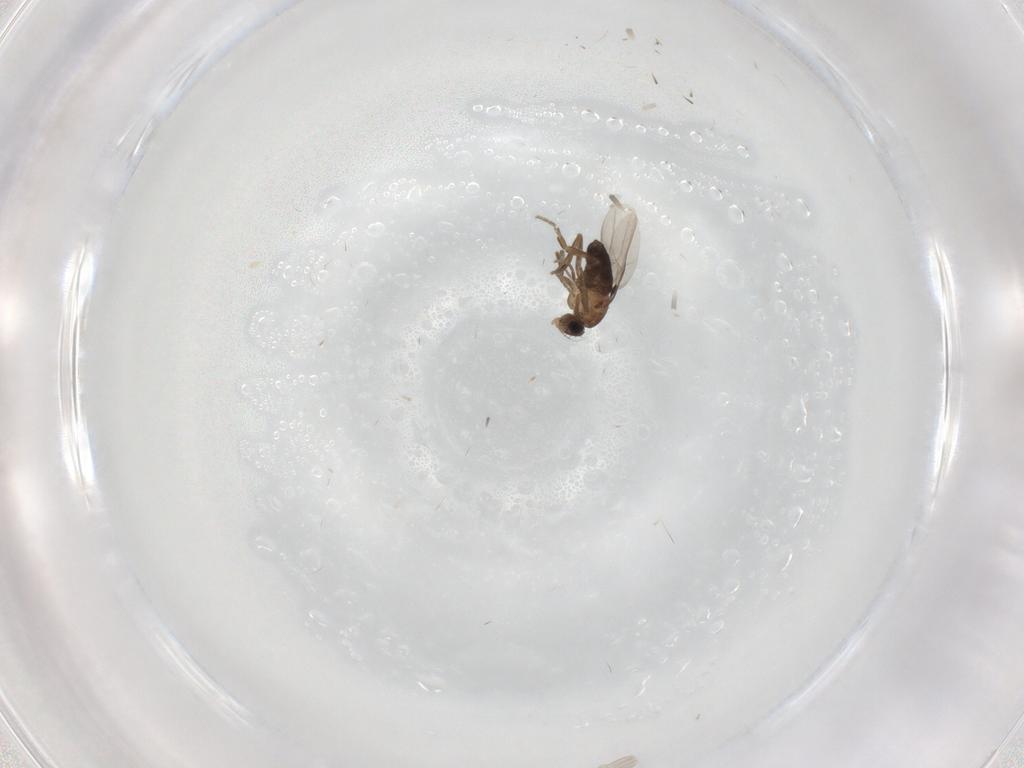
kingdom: Animalia
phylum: Arthropoda
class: Insecta
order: Diptera
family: Phoridae
